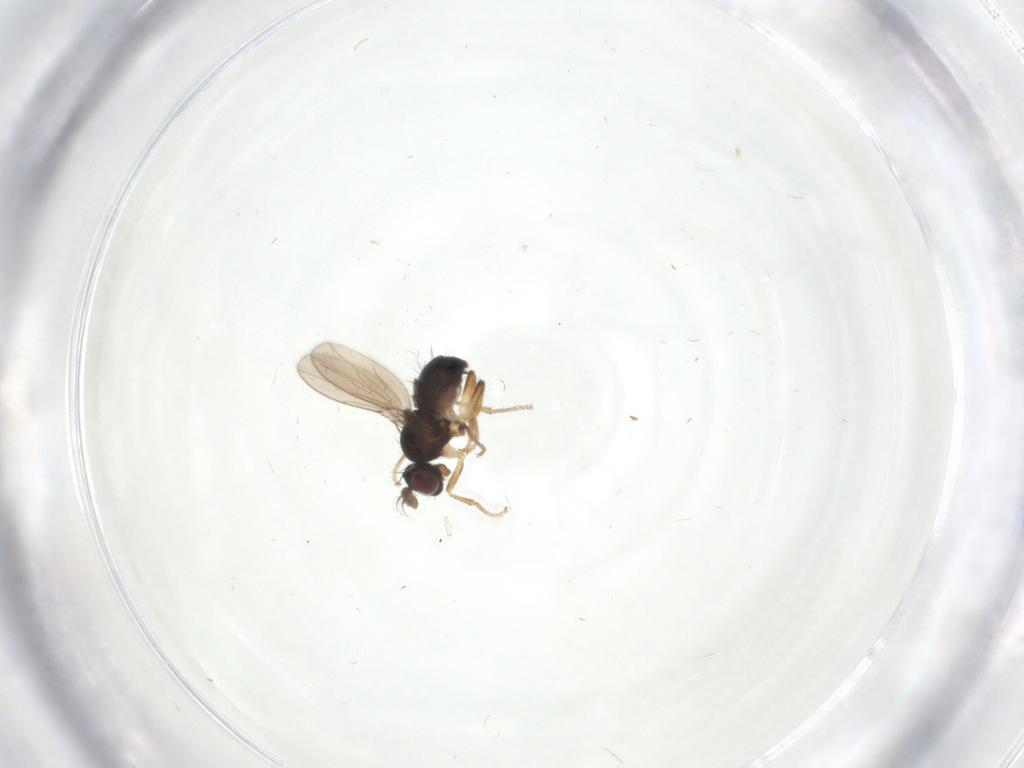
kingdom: Animalia
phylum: Arthropoda
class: Insecta
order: Diptera
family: Ephydridae
